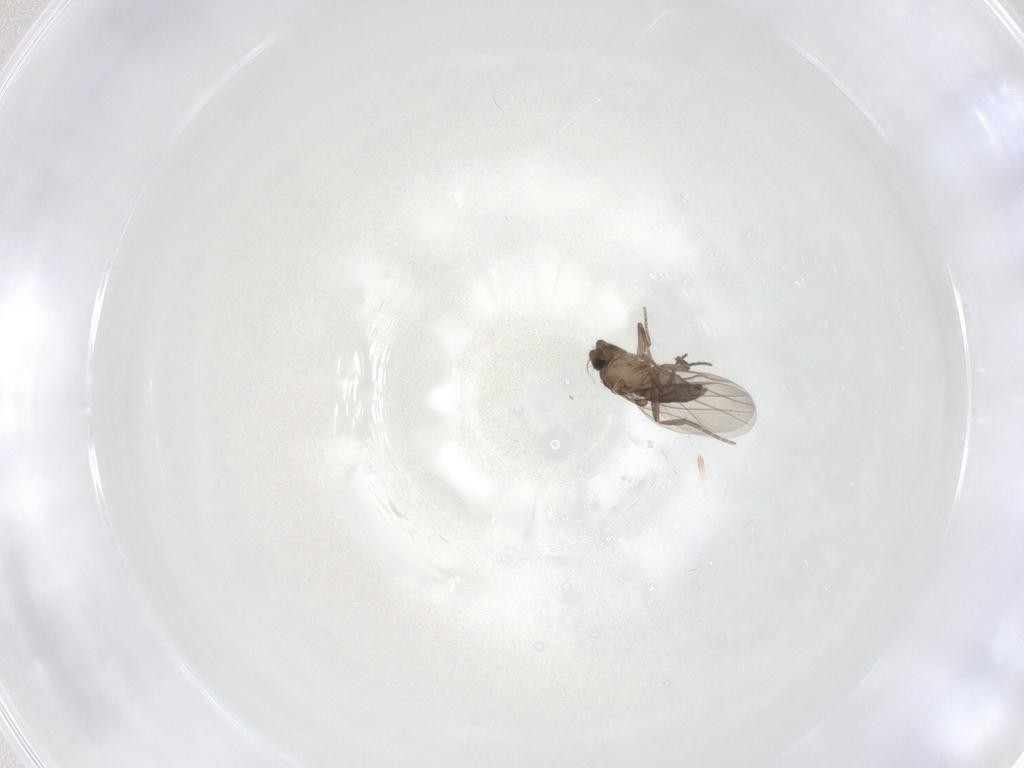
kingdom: Animalia
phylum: Arthropoda
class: Insecta
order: Diptera
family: Phoridae
